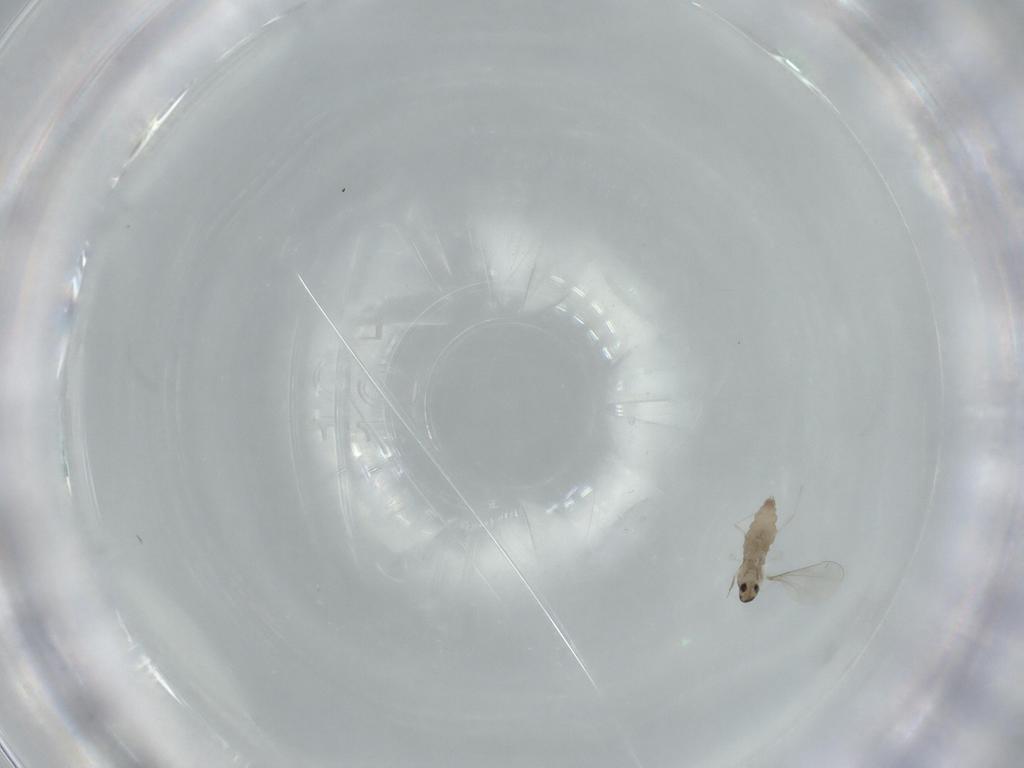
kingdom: Animalia
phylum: Arthropoda
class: Insecta
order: Diptera
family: Cecidomyiidae
